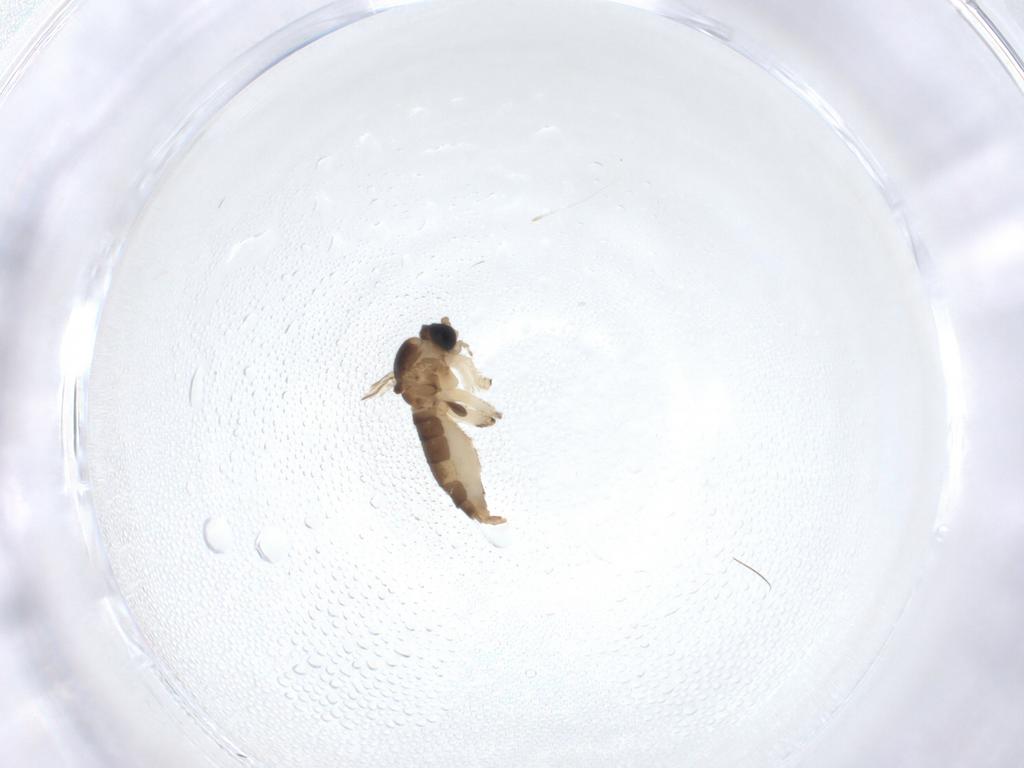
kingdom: Animalia
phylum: Arthropoda
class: Insecta
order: Diptera
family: Sciaridae
